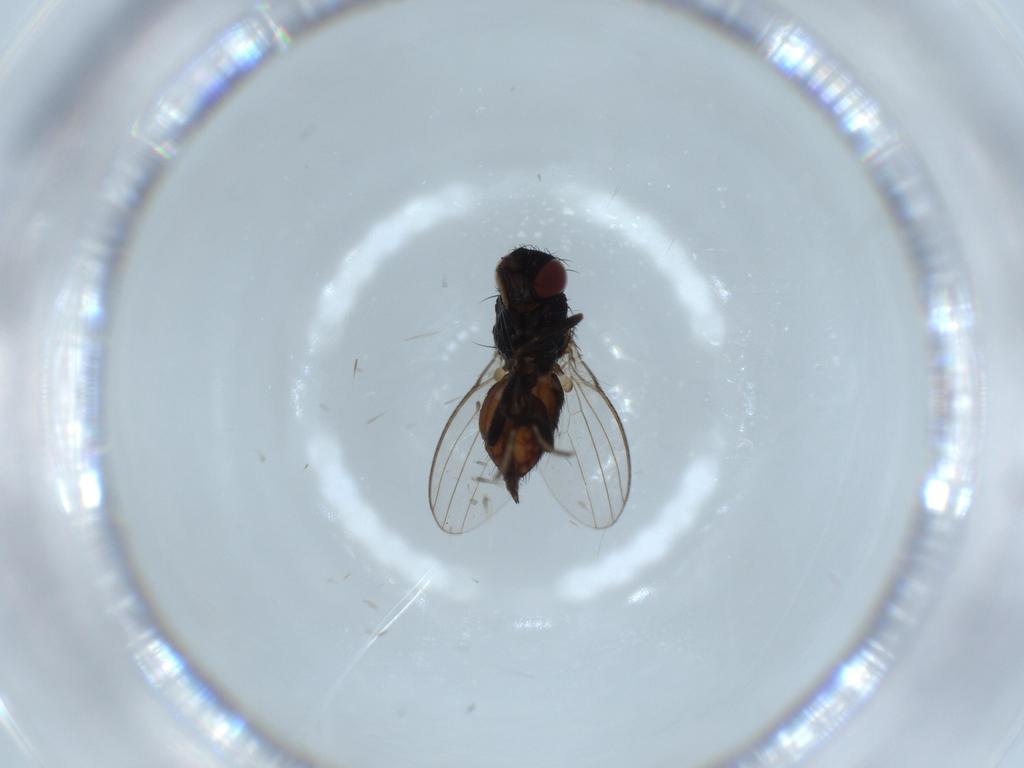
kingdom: Animalia
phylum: Arthropoda
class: Insecta
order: Diptera
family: Milichiidae
